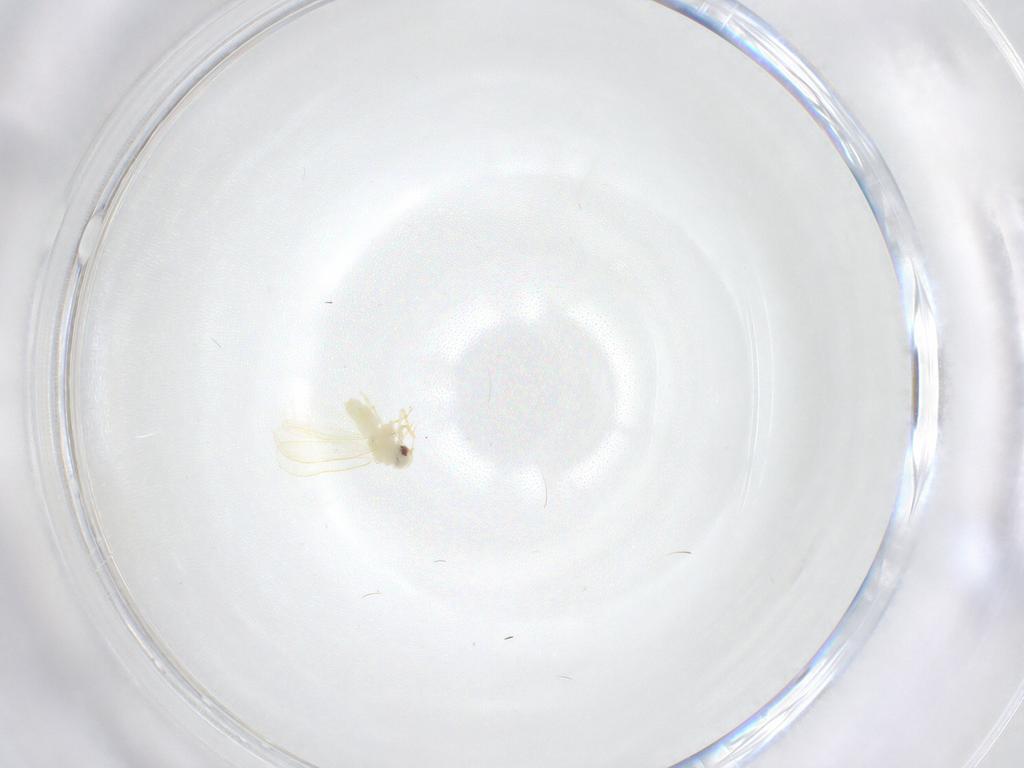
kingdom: Animalia
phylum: Arthropoda
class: Insecta
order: Hemiptera
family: Aleyrodidae
